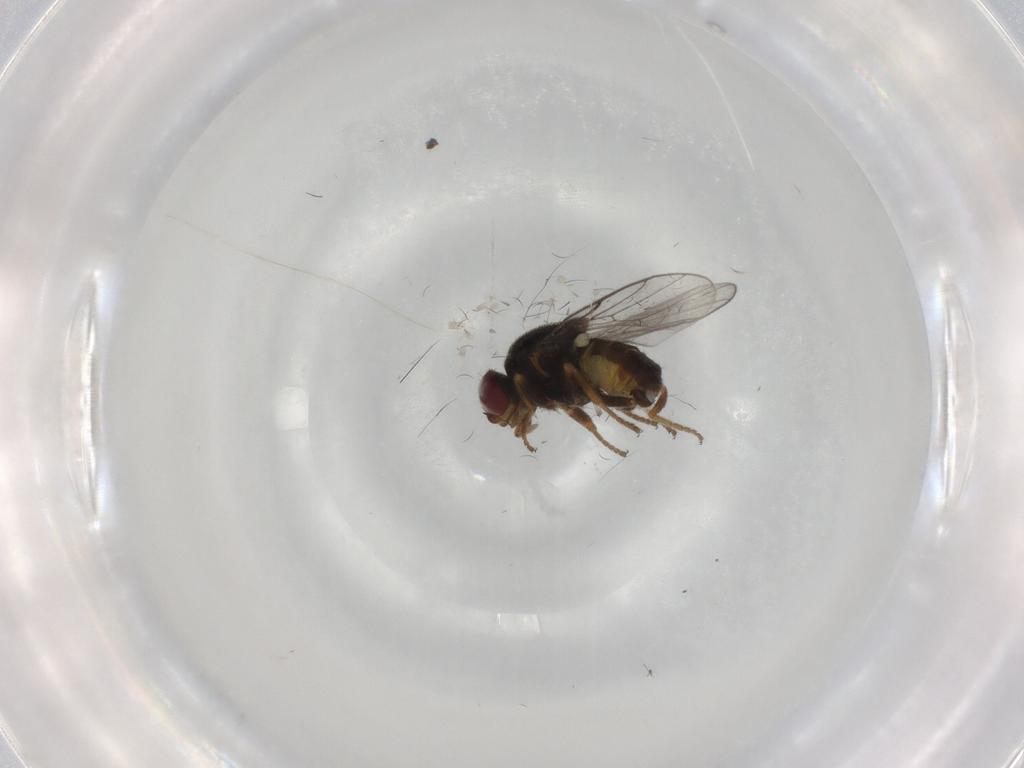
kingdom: Animalia
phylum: Arthropoda
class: Insecta
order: Diptera
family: Chloropidae
